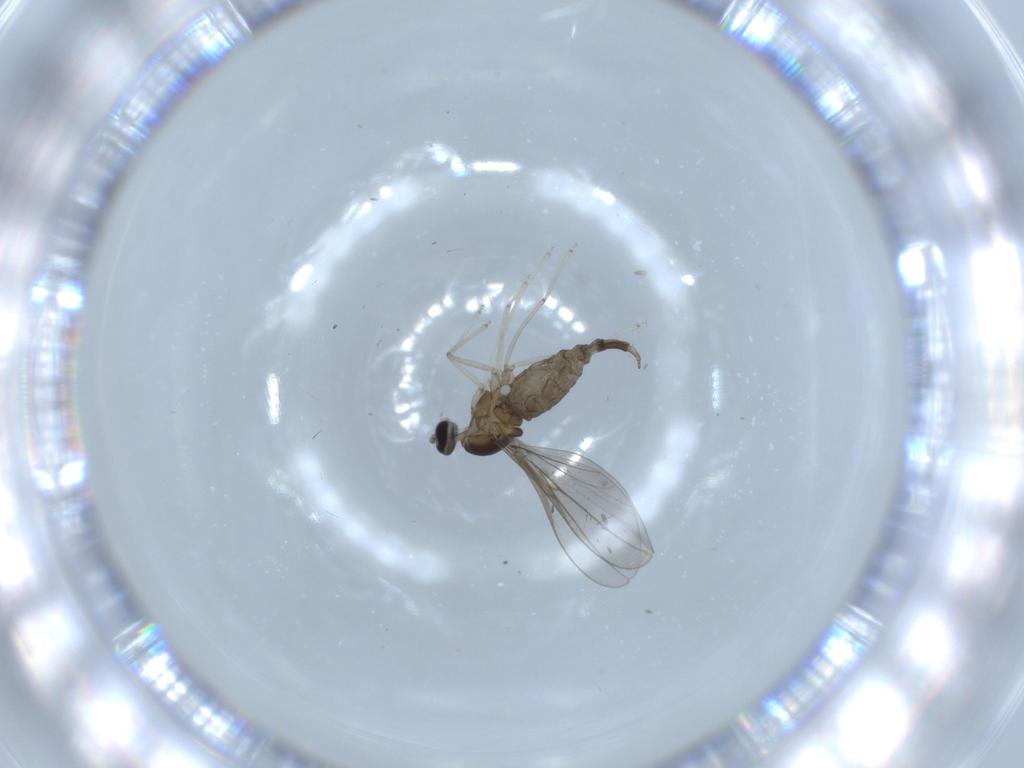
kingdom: Animalia
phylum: Arthropoda
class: Insecta
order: Diptera
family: Cecidomyiidae
